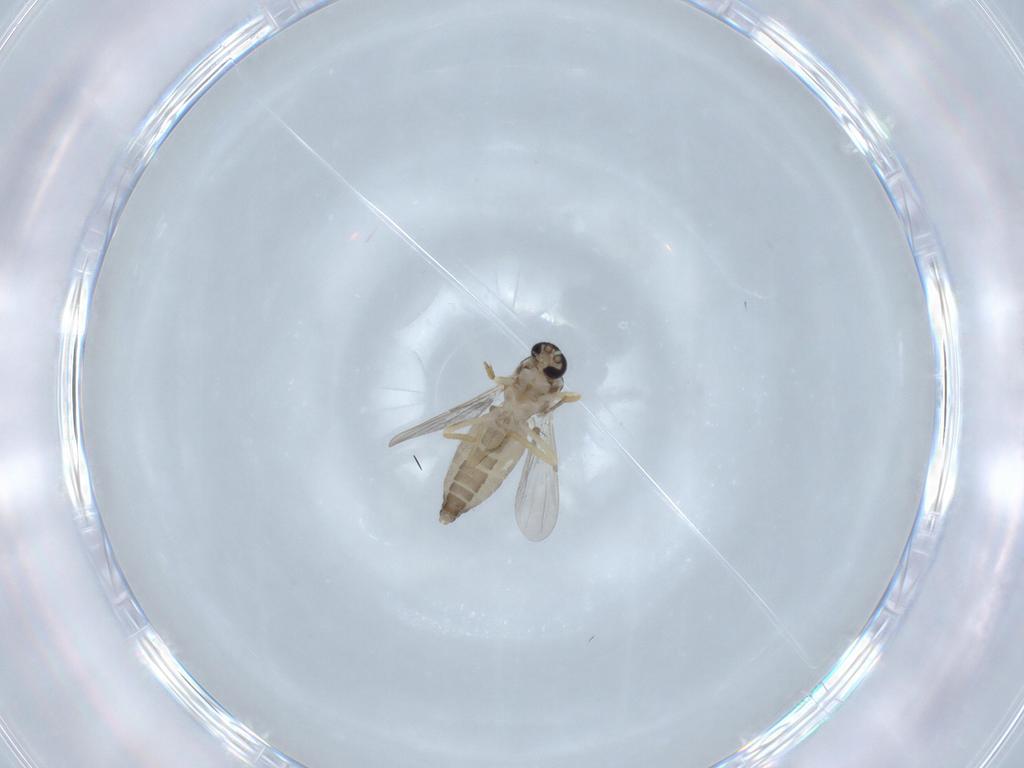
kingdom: Animalia
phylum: Arthropoda
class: Insecta
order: Diptera
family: Ceratopogonidae
